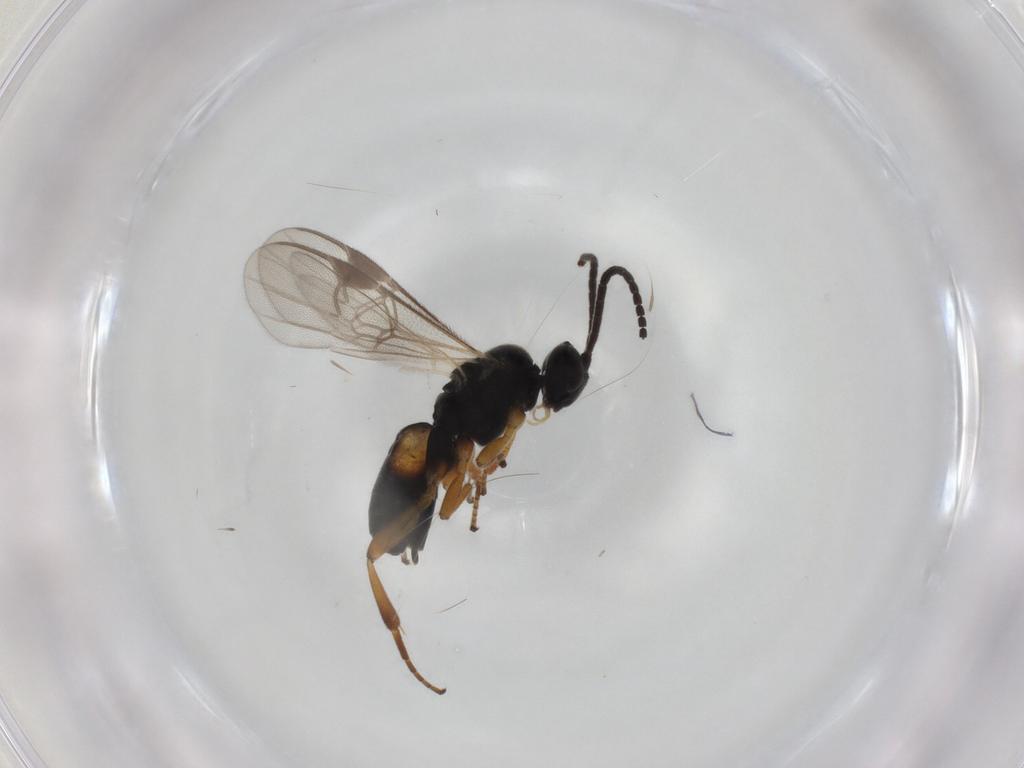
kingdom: Animalia
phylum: Arthropoda
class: Insecta
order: Hymenoptera
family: Braconidae
